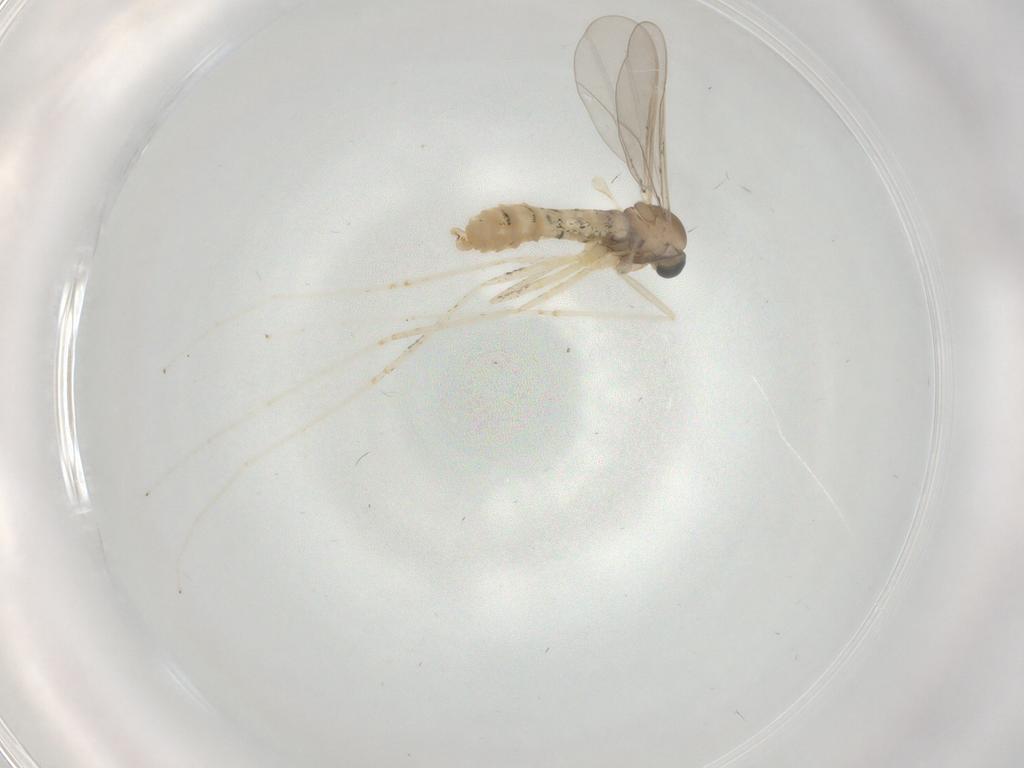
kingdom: Animalia
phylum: Arthropoda
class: Insecta
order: Diptera
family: Cecidomyiidae
